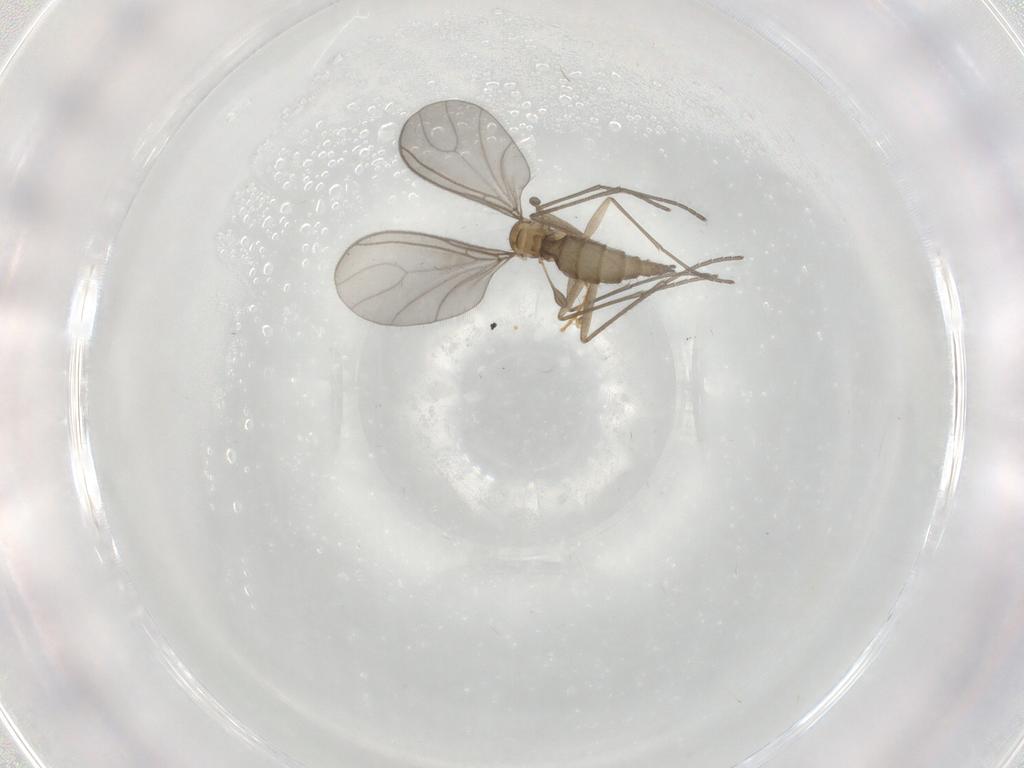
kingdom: Animalia
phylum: Arthropoda
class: Insecta
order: Diptera
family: Sciaridae
